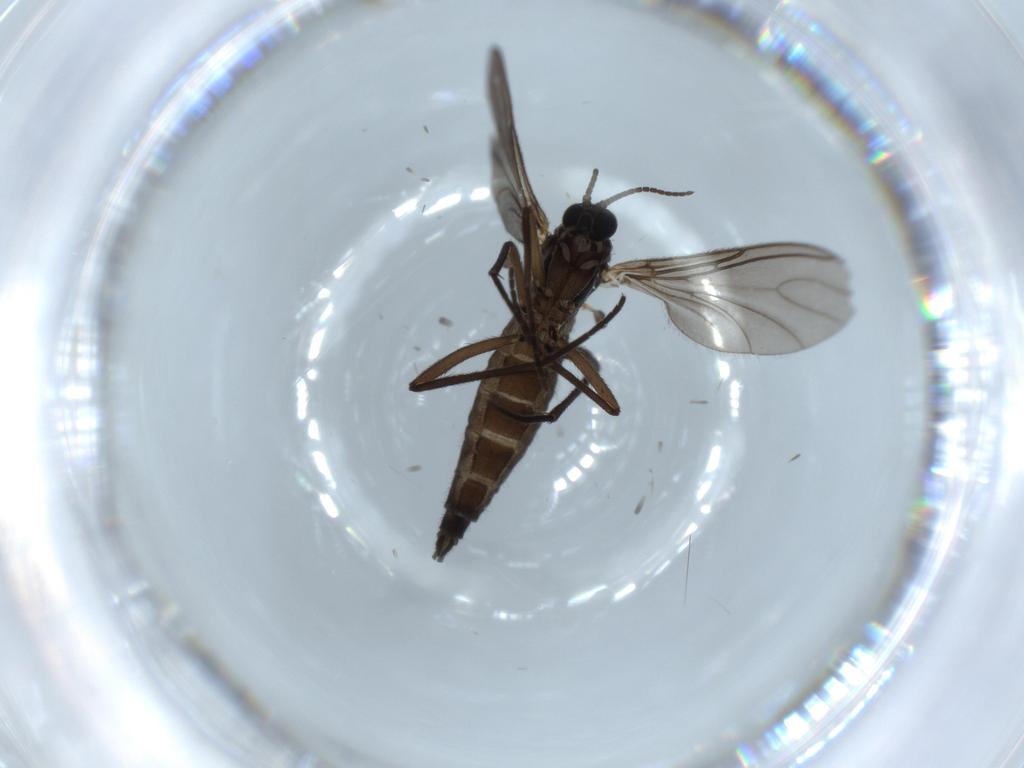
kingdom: Animalia
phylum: Arthropoda
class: Insecta
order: Diptera
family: Sciaridae
